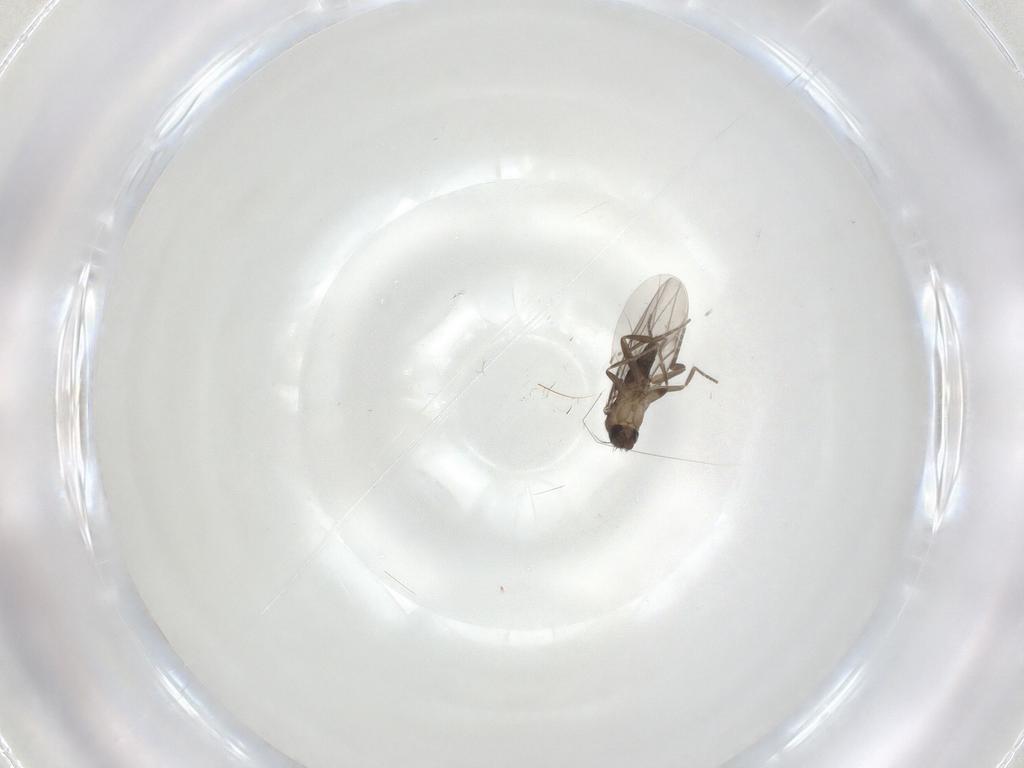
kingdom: Animalia
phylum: Arthropoda
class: Insecta
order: Diptera
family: Phoridae
